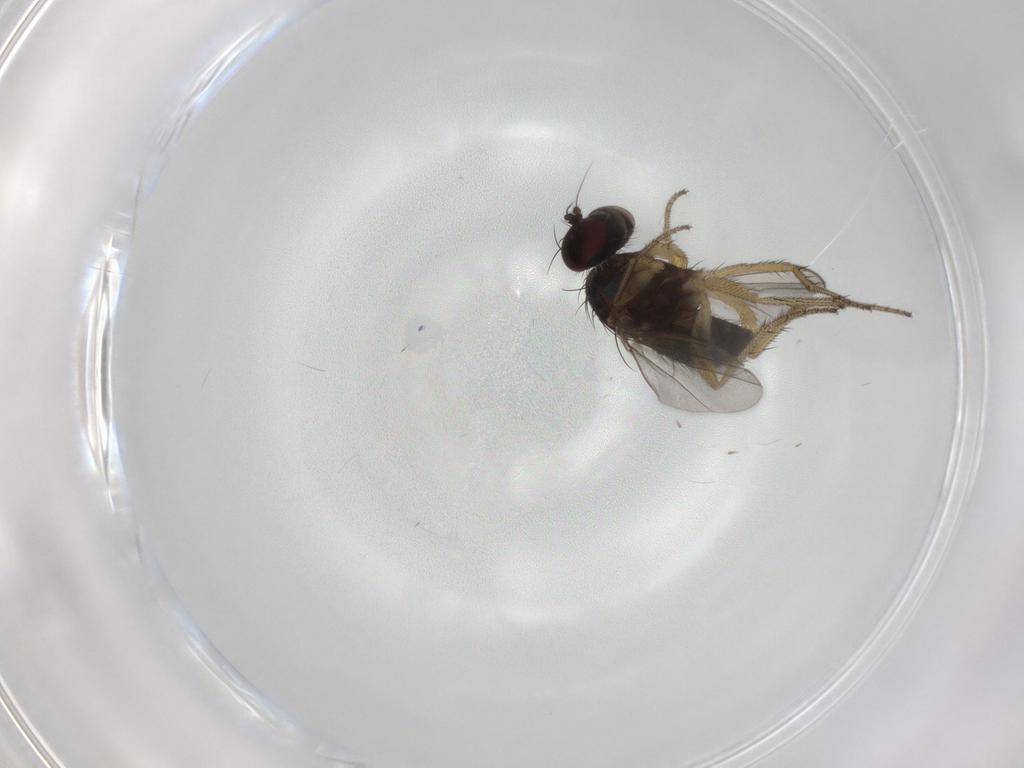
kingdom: Animalia
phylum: Arthropoda
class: Insecta
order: Diptera
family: Dolichopodidae
